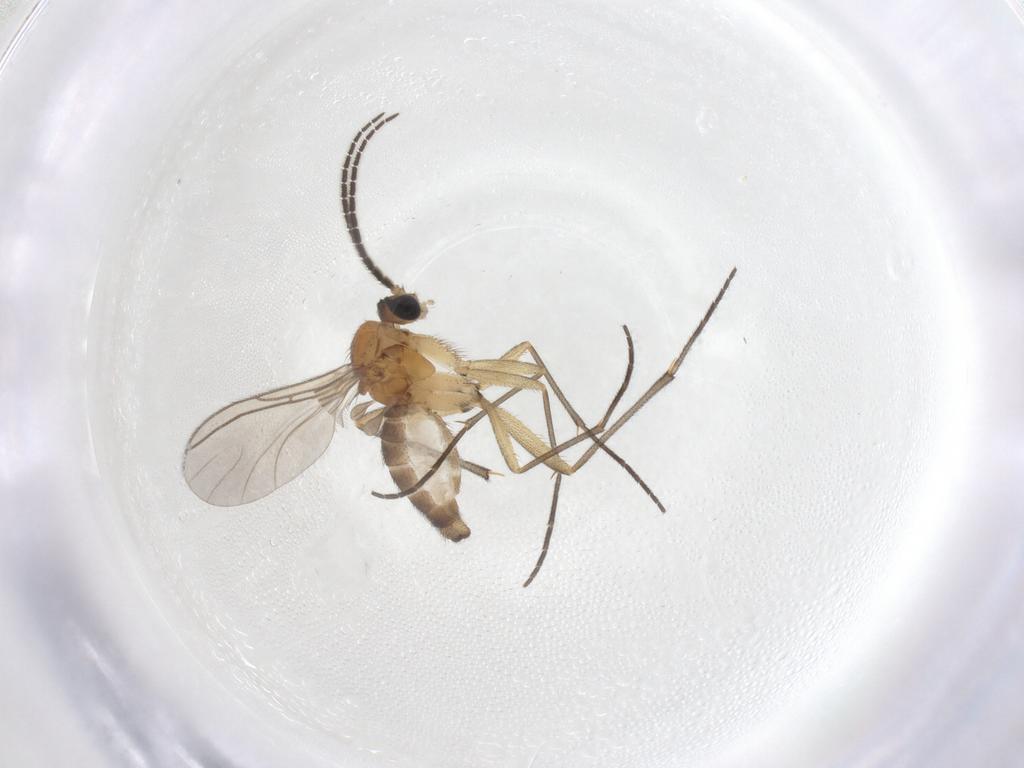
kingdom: Animalia
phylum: Arthropoda
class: Insecta
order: Diptera
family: Sciaridae
